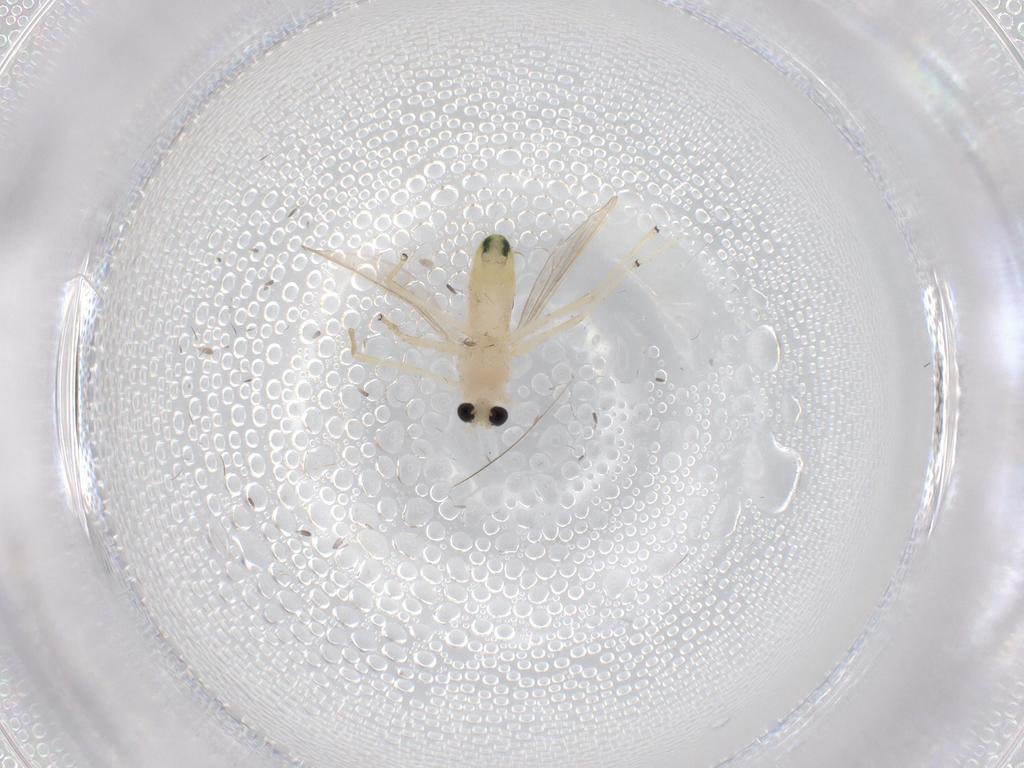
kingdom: Animalia
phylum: Arthropoda
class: Insecta
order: Diptera
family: Chironomidae
